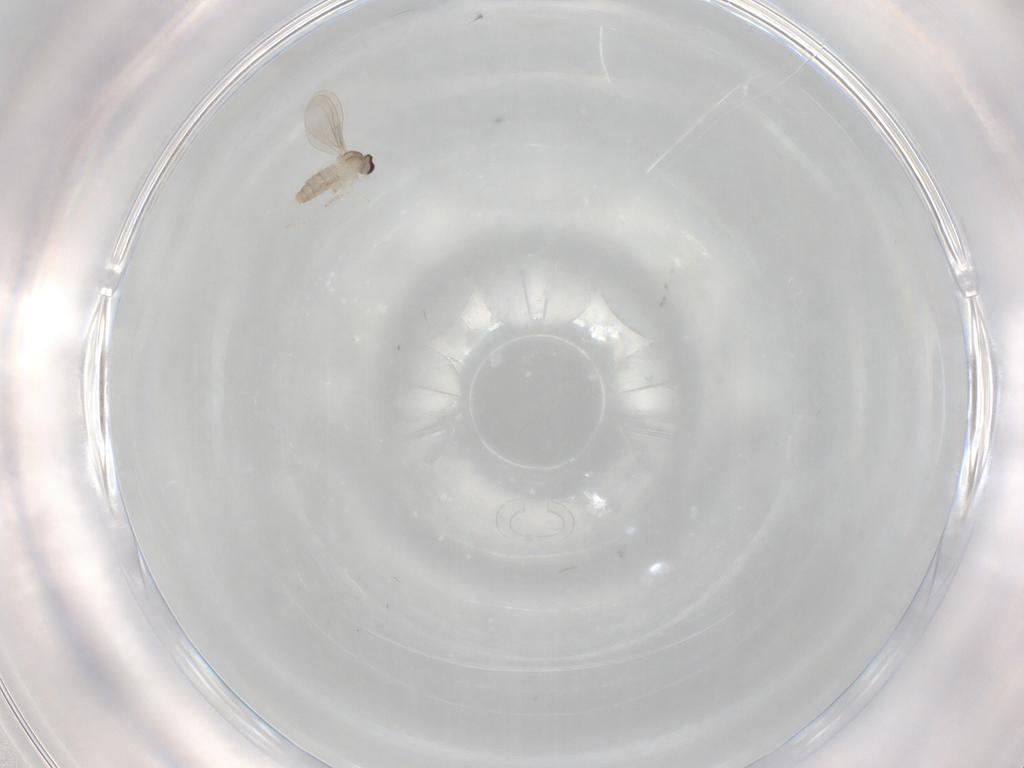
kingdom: Animalia
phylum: Arthropoda
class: Insecta
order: Diptera
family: Cecidomyiidae
